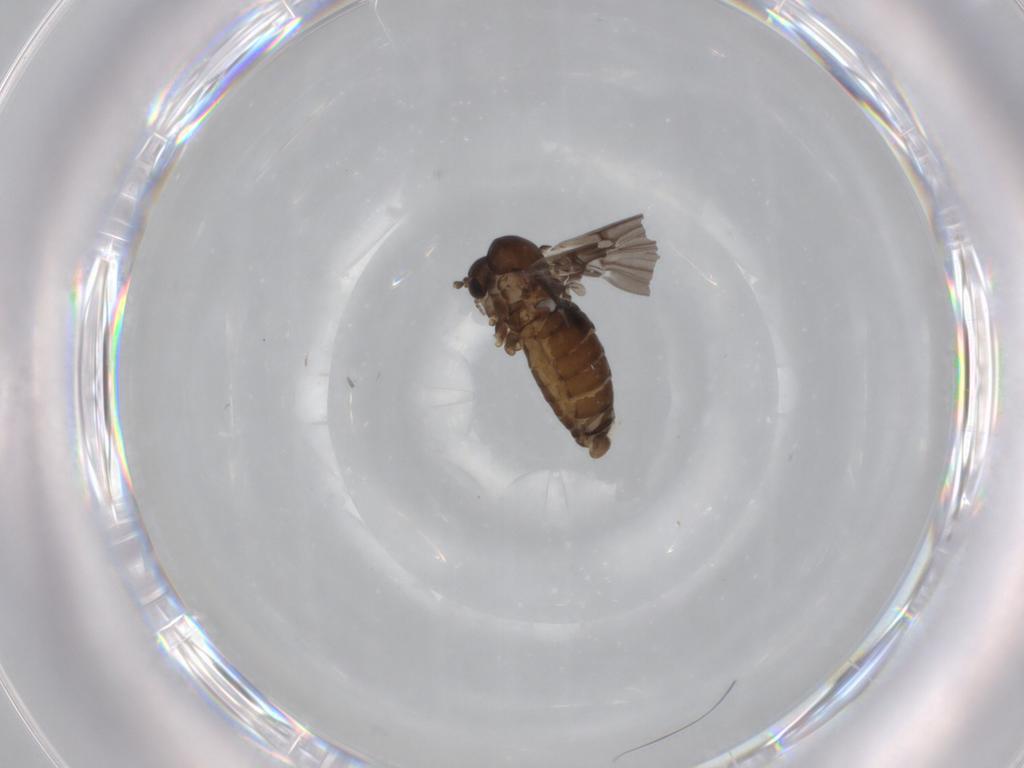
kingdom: Animalia
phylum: Arthropoda
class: Insecta
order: Diptera
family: Psychodidae
